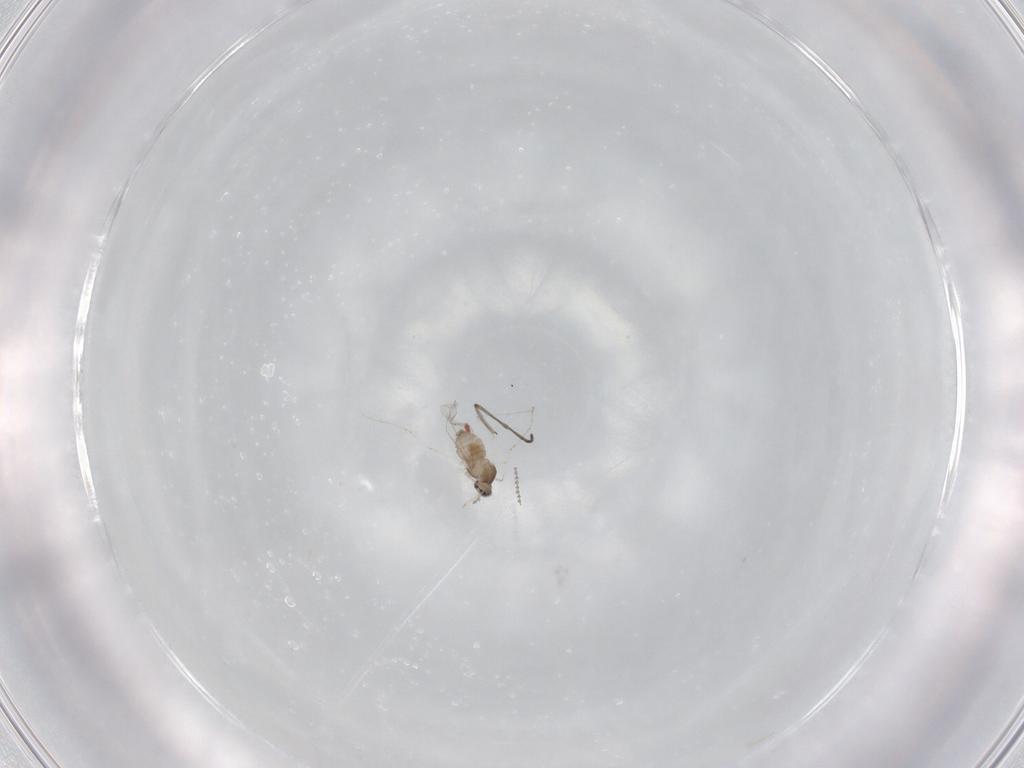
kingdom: Animalia
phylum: Arthropoda
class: Insecta
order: Diptera
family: Cecidomyiidae
